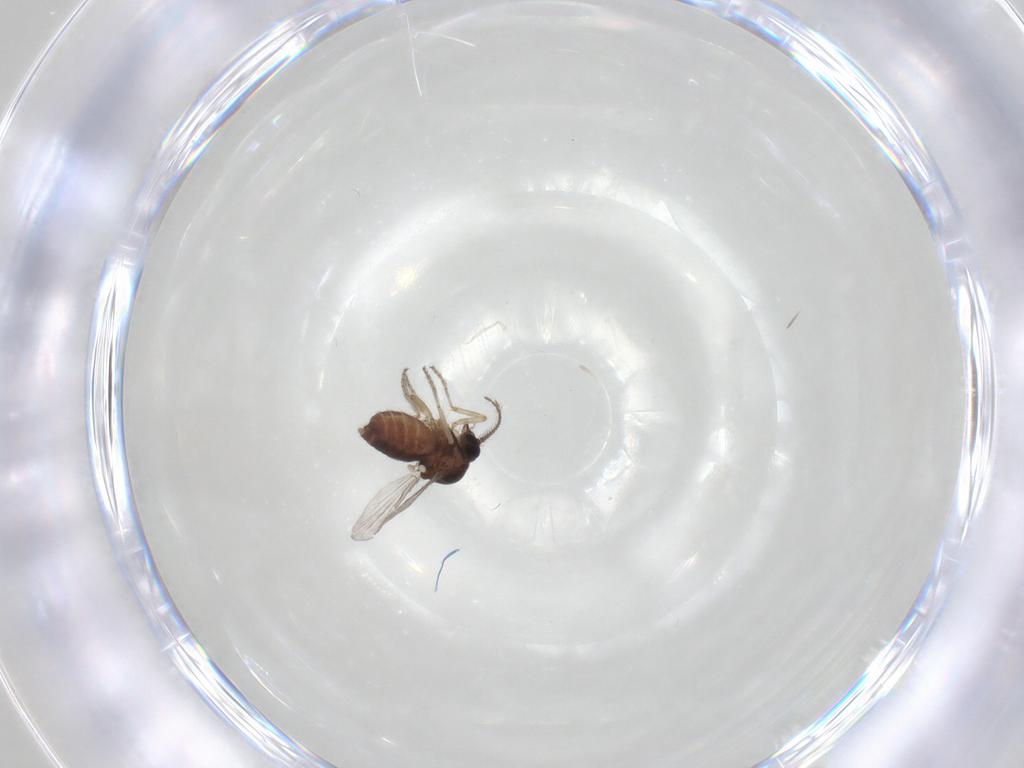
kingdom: Animalia
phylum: Arthropoda
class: Insecta
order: Diptera
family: Ceratopogonidae
